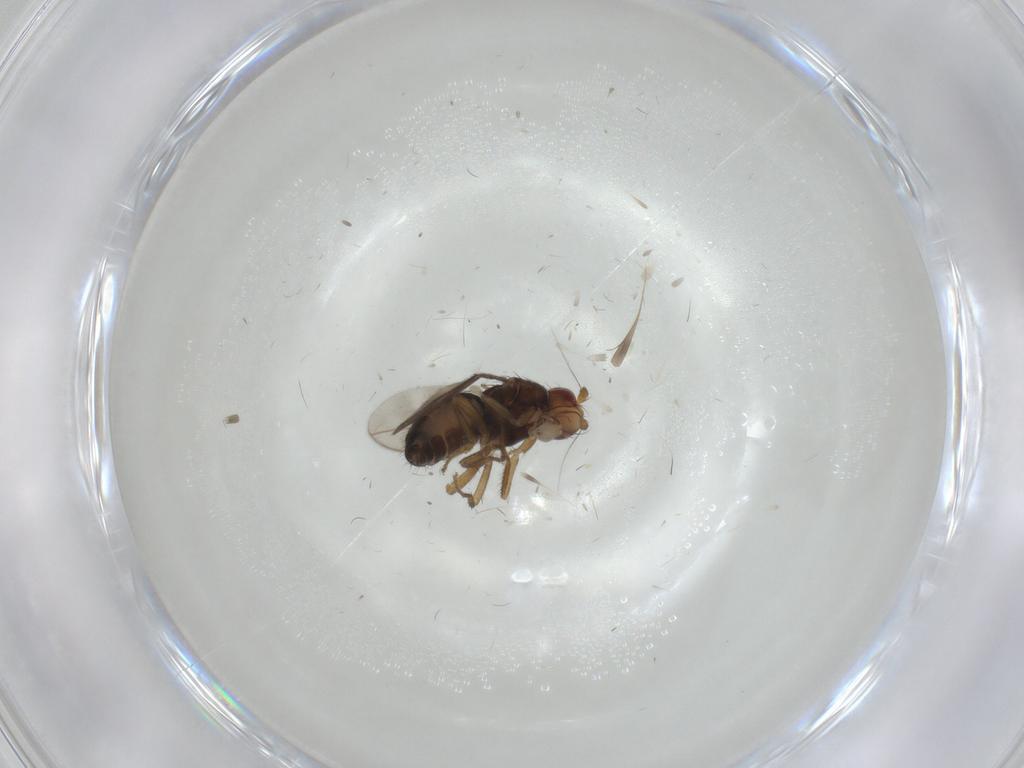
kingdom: Animalia
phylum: Arthropoda
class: Insecta
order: Diptera
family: Sphaeroceridae
